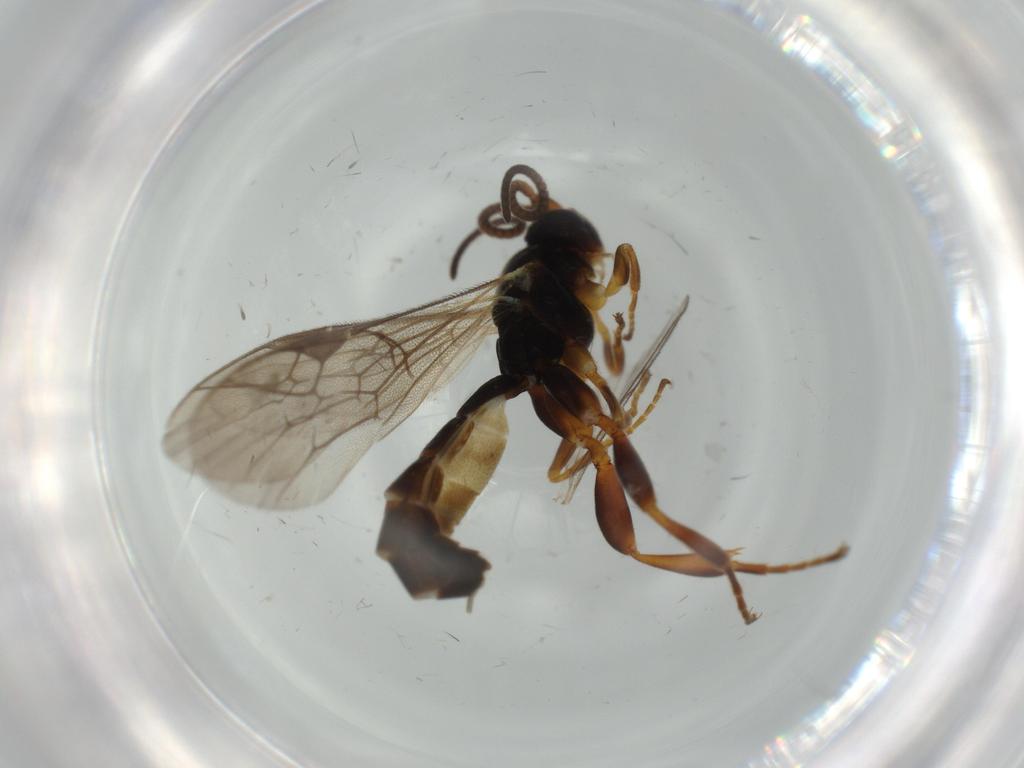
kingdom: Animalia
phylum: Arthropoda
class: Insecta
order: Hymenoptera
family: Ichneumonidae
